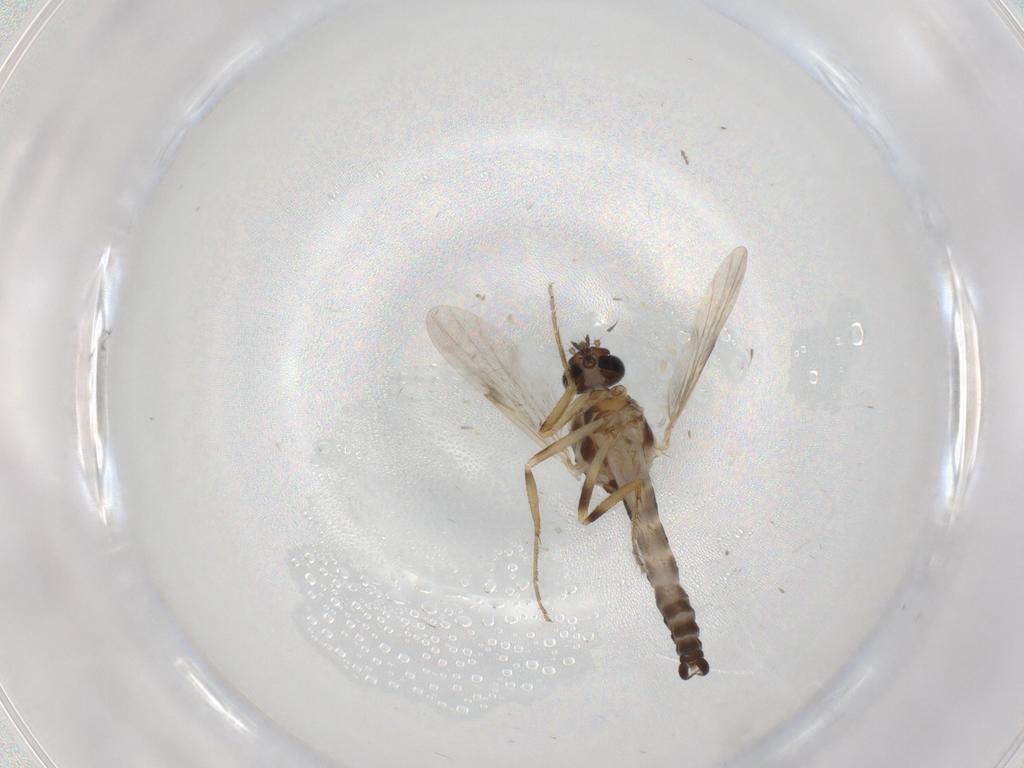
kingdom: Animalia
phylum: Arthropoda
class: Insecta
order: Diptera
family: Ceratopogonidae
